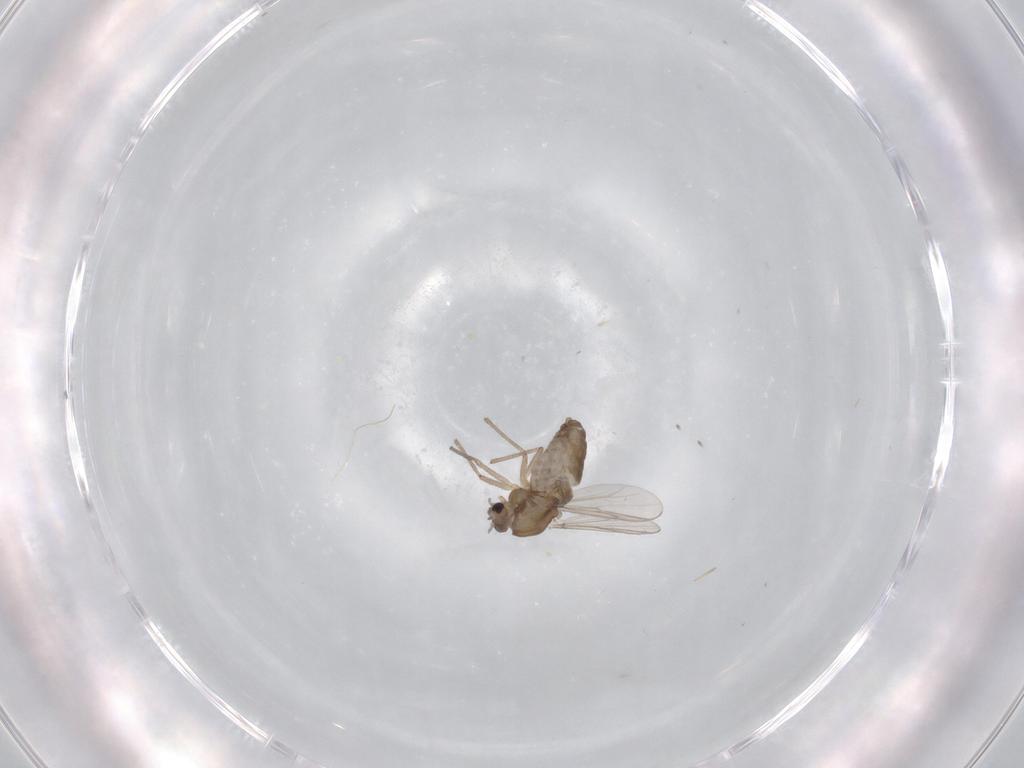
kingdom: Animalia
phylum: Arthropoda
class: Insecta
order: Diptera
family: Chironomidae
